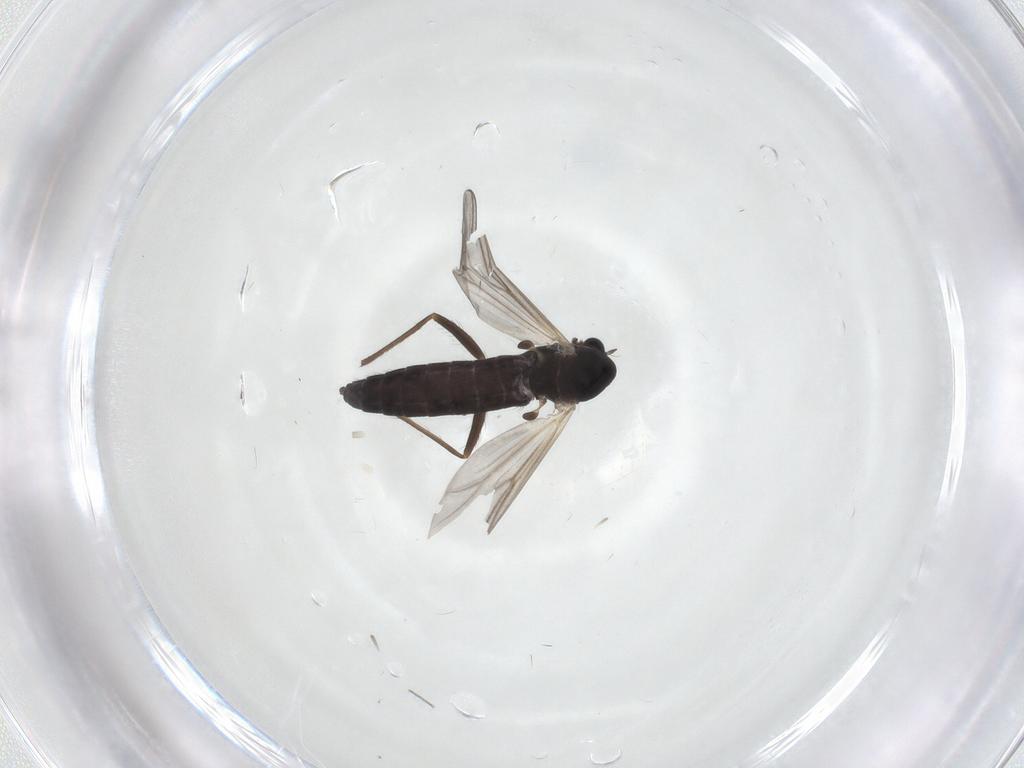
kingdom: Animalia
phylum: Arthropoda
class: Insecta
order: Diptera
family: Chironomidae
